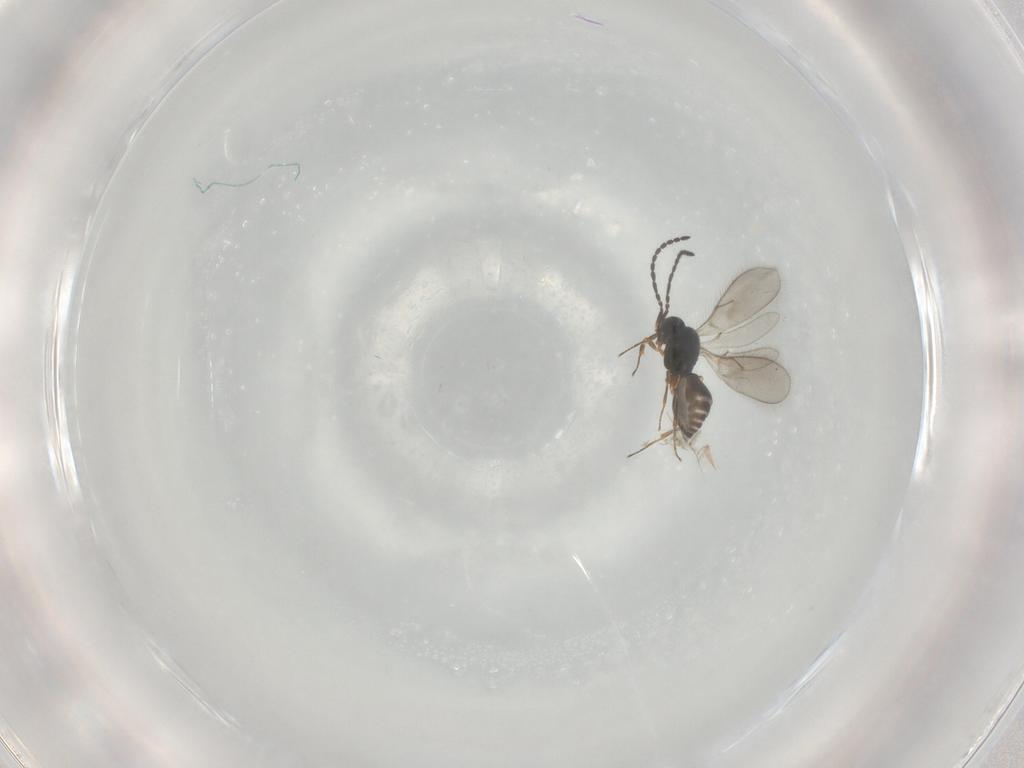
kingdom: Animalia
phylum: Arthropoda
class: Insecta
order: Hymenoptera
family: Scelionidae
